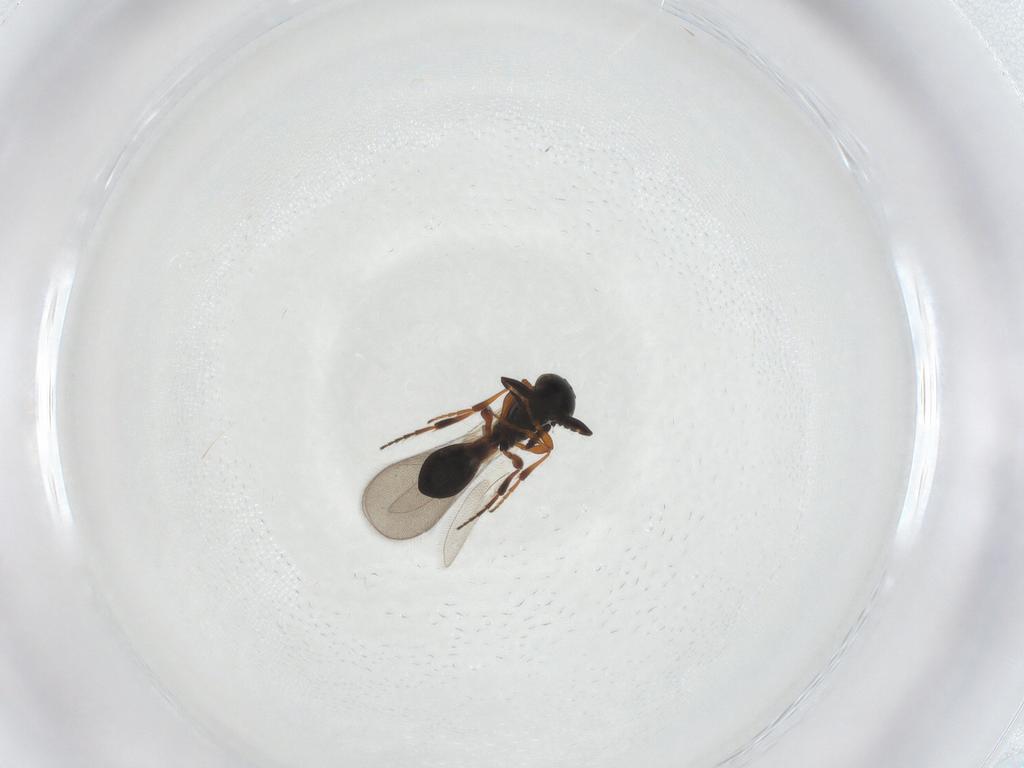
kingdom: Animalia
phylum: Arthropoda
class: Insecta
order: Hymenoptera
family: Platygastridae
